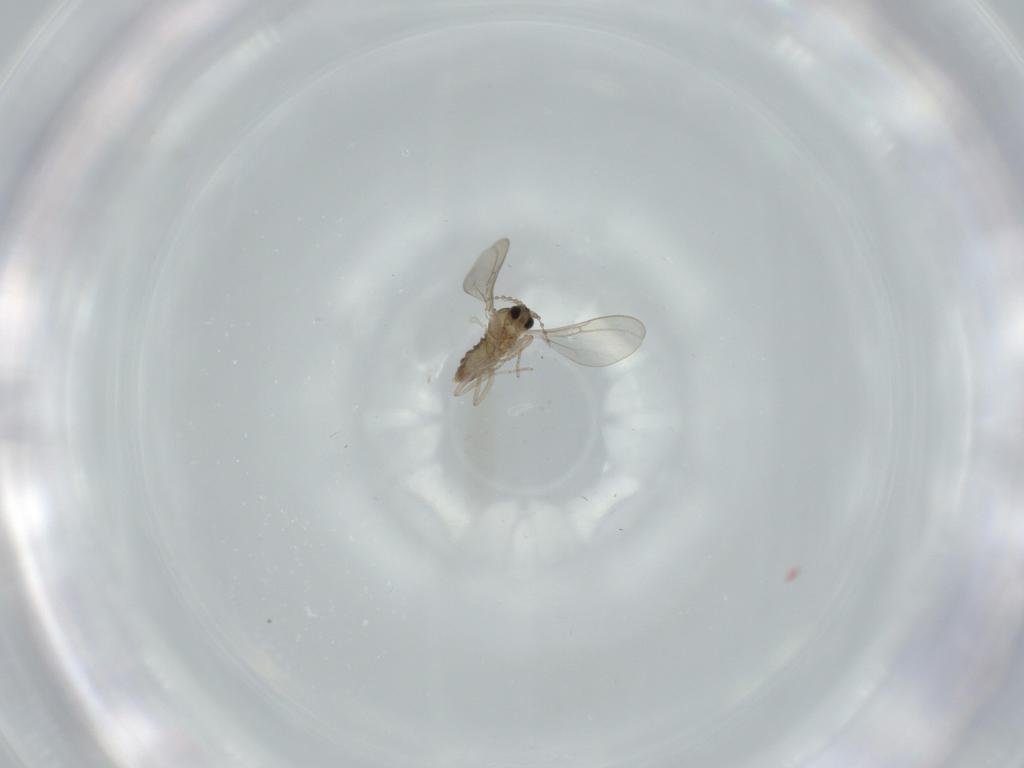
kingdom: Animalia
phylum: Arthropoda
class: Insecta
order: Diptera
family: Cecidomyiidae
